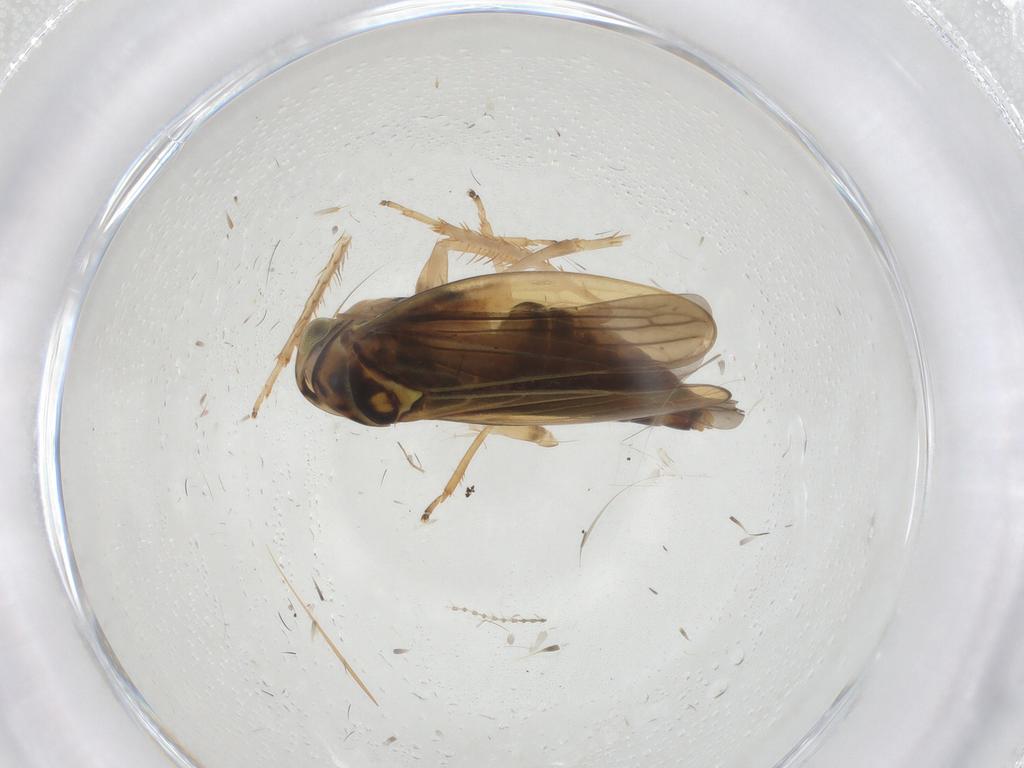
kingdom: Animalia
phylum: Arthropoda
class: Insecta
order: Hemiptera
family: Cicadellidae
